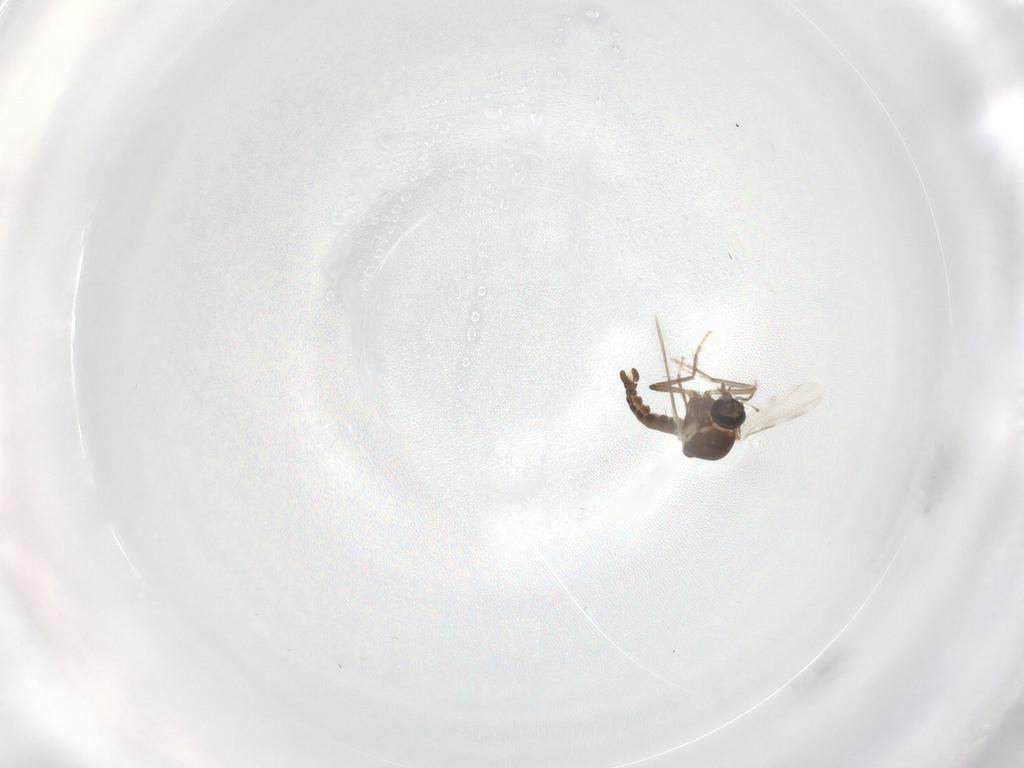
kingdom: Animalia
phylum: Arthropoda
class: Insecta
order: Diptera
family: Ceratopogonidae
